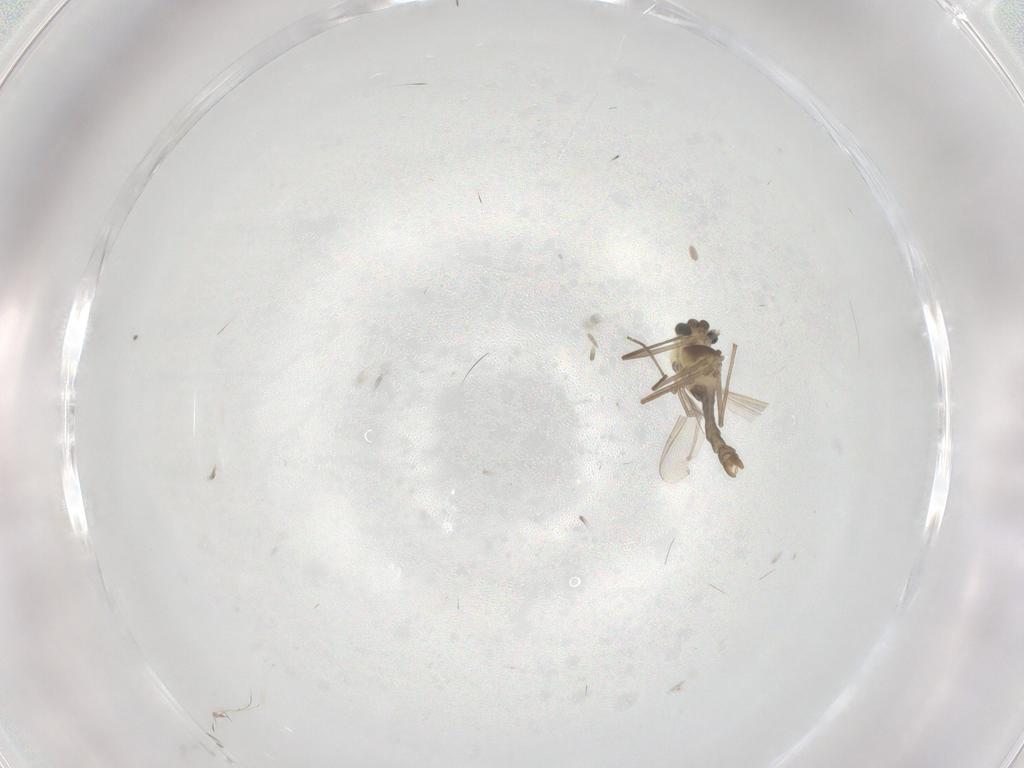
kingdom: Animalia
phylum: Arthropoda
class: Insecta
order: Diptera
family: Chironomidae
